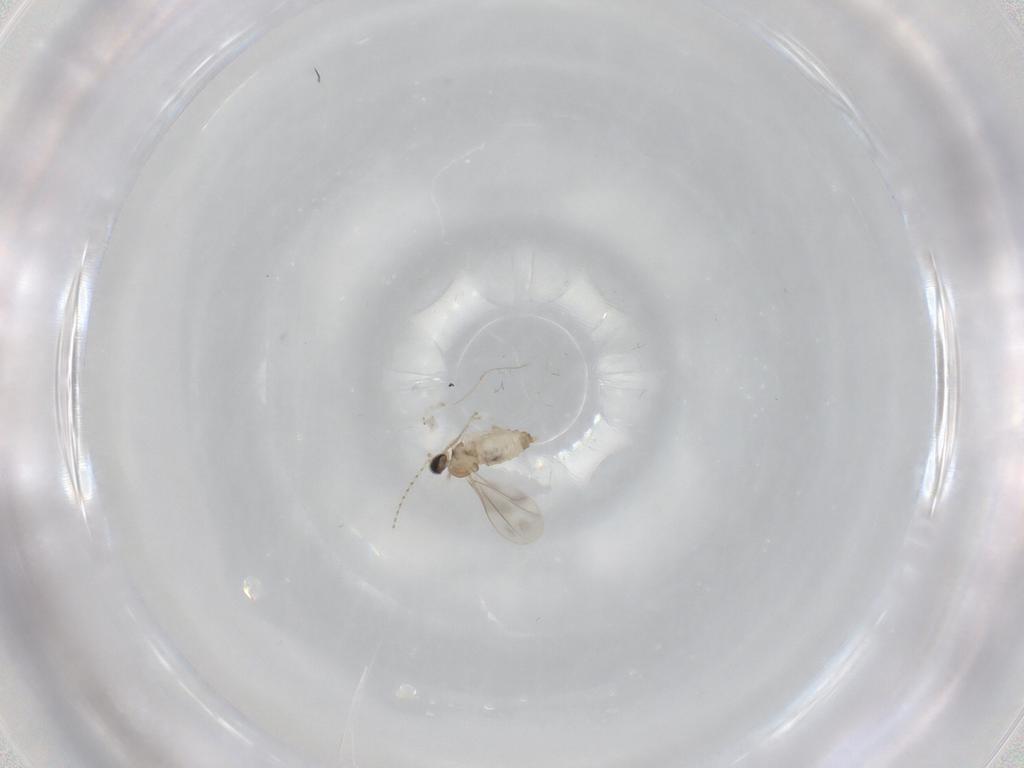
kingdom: Animalia
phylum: Arthropoda
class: Insecta
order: Diptera
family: Dolichopodidae
